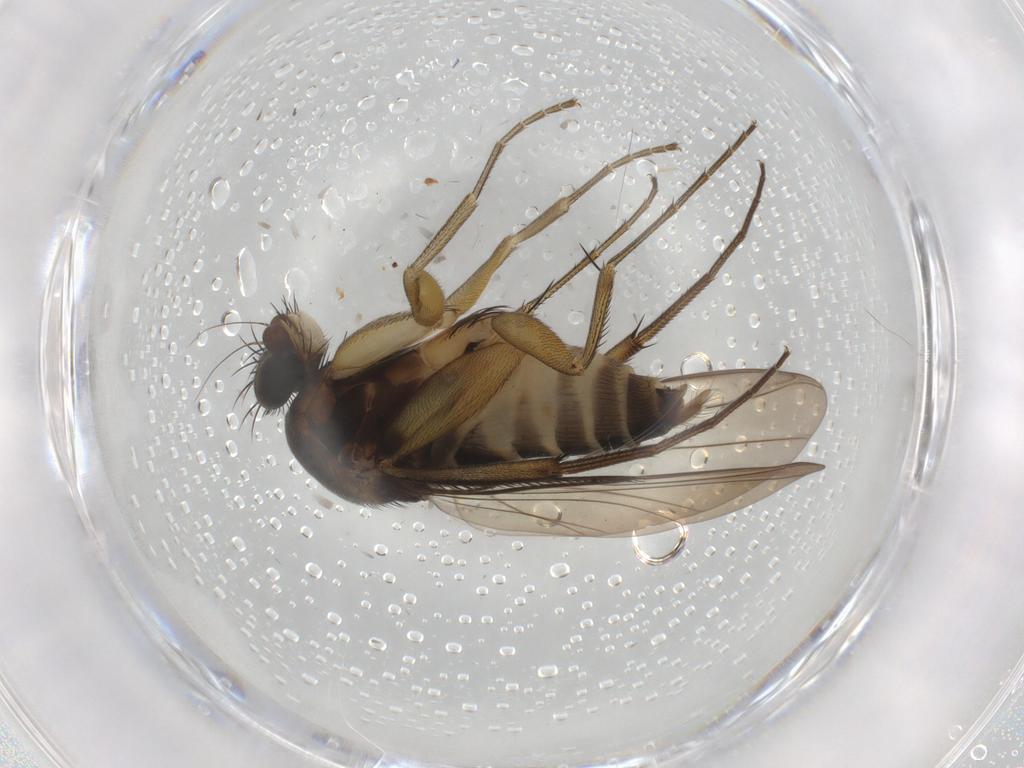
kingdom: Animalia
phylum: Arthropoda
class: Insecta
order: Diptera
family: Phoridae
